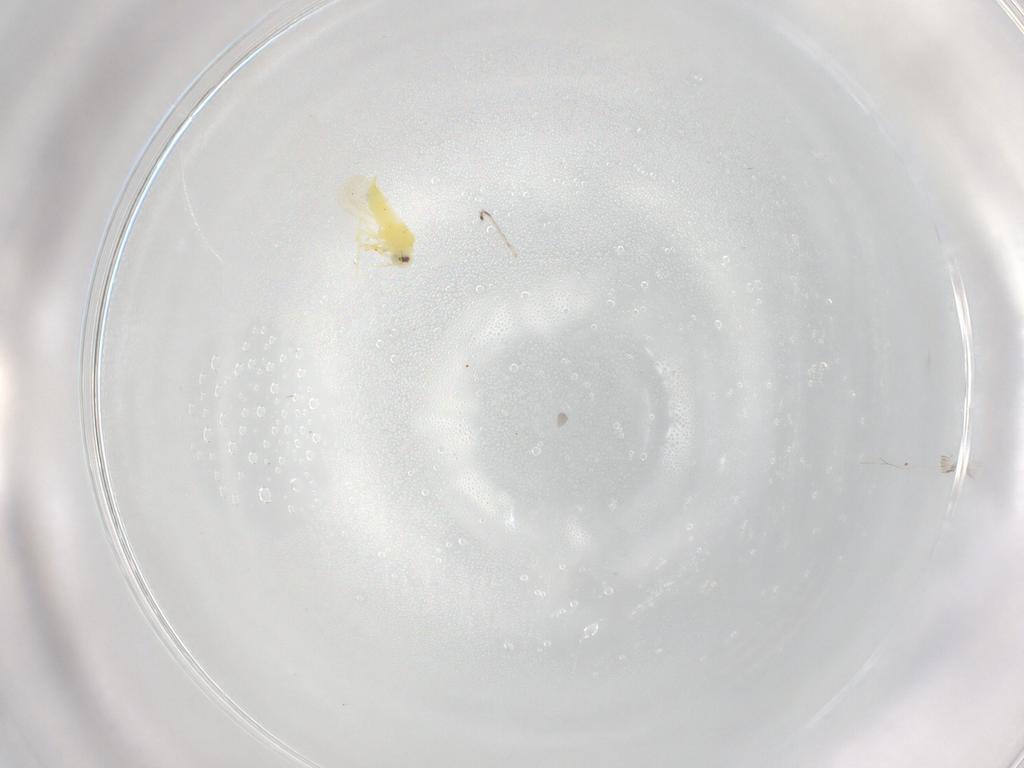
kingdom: Animalia
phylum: Arthropoda
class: Insecta
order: Hemiptera
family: Aleyrodidae
